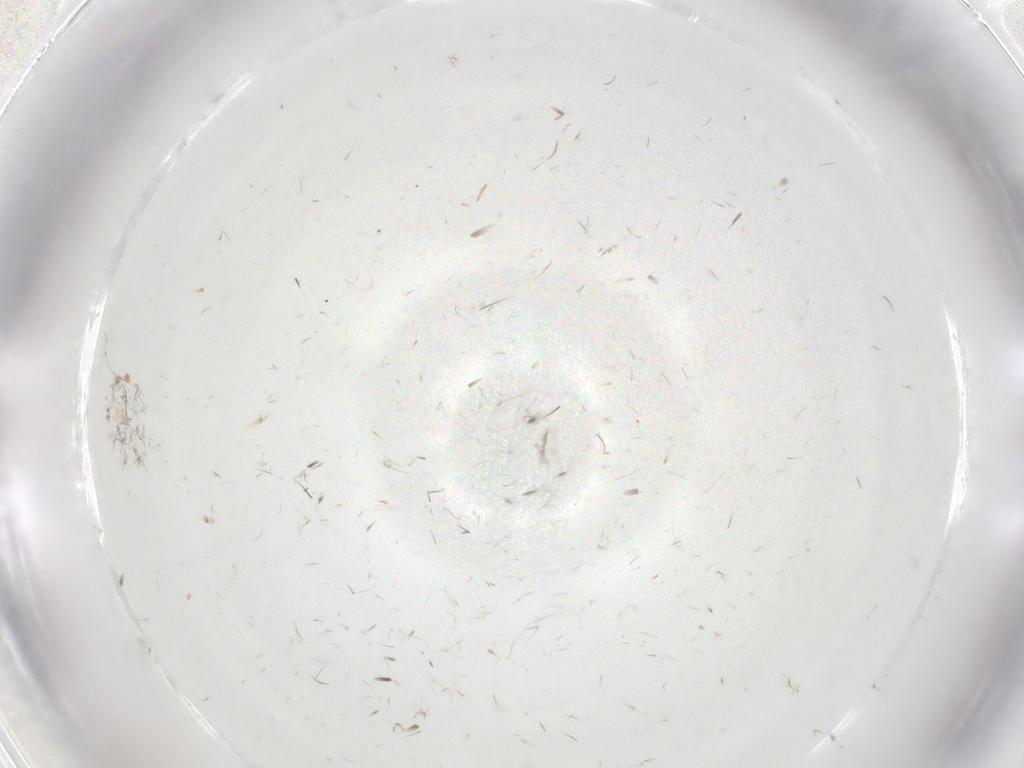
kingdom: Animalia
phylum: Arthropoda
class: Insecta
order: Diptera
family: Psychodidae
